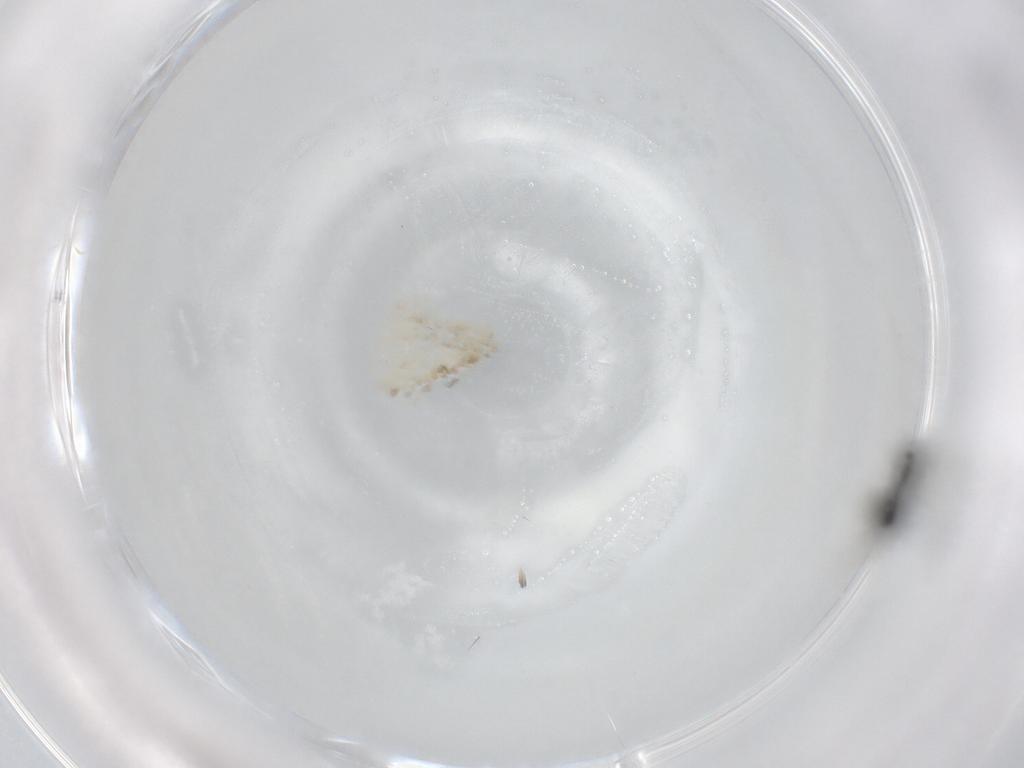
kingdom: Animalia
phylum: Arthropoda
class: Insecta
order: Hymenoptera
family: Scelionidae
